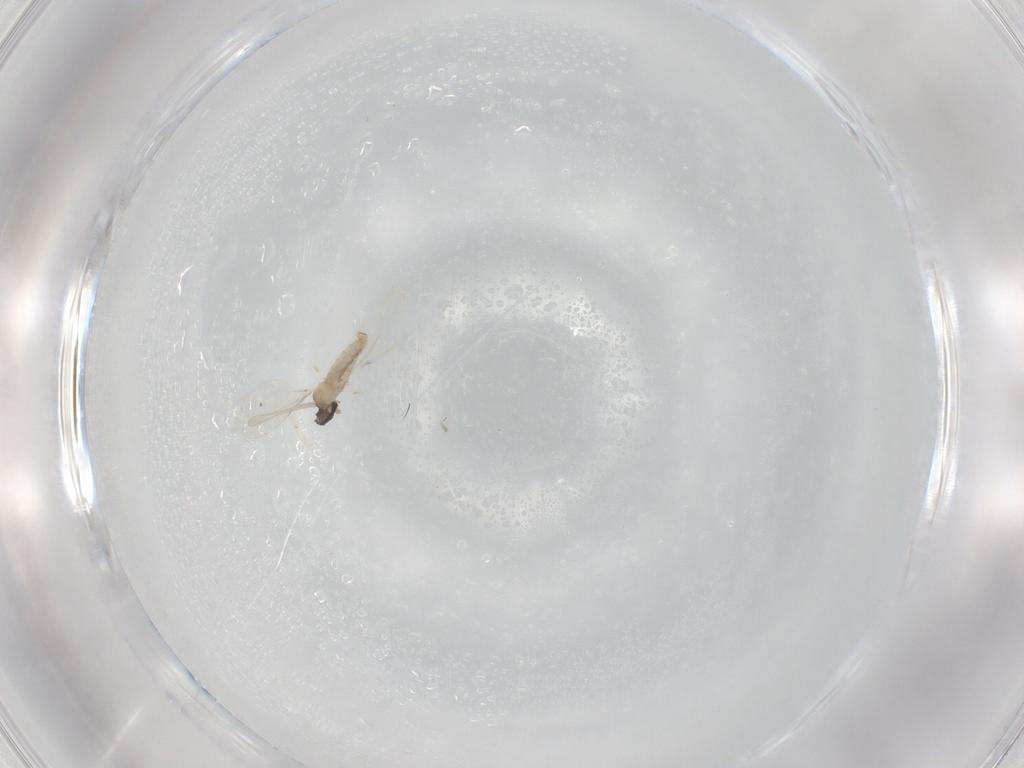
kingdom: Animalia
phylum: Arthropoda
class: Insecta
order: Diptera
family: Cecidomyiidae
